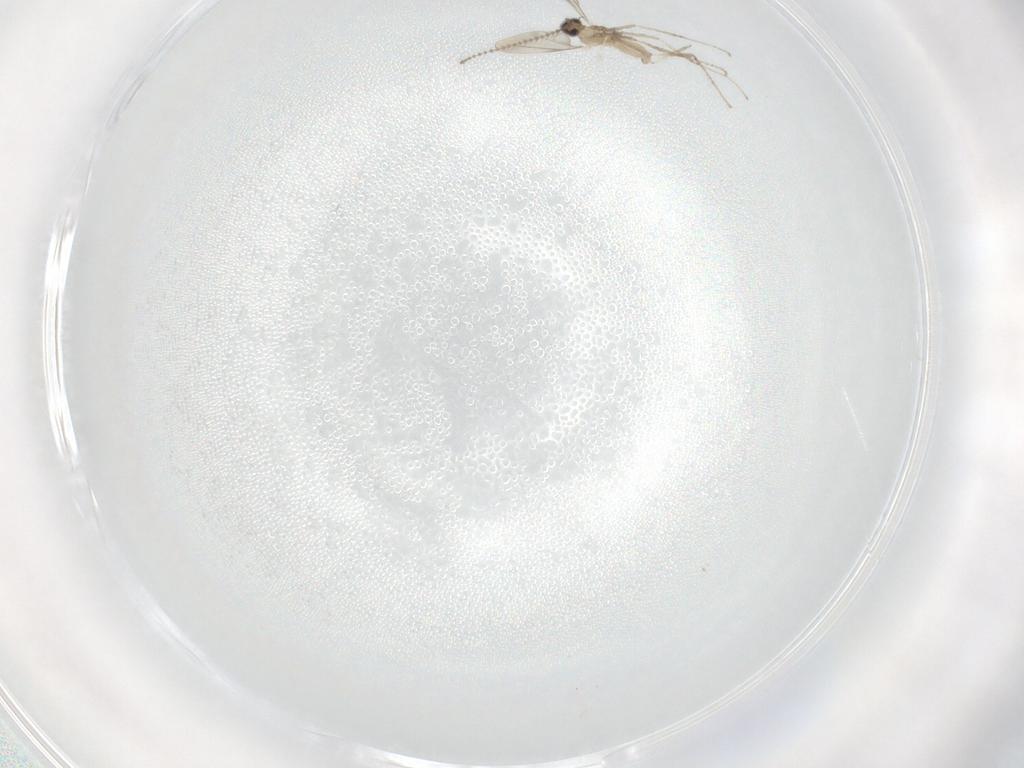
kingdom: Animalia
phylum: Arthropoda
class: Insecta
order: Diptera
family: Cecidomyiidae
